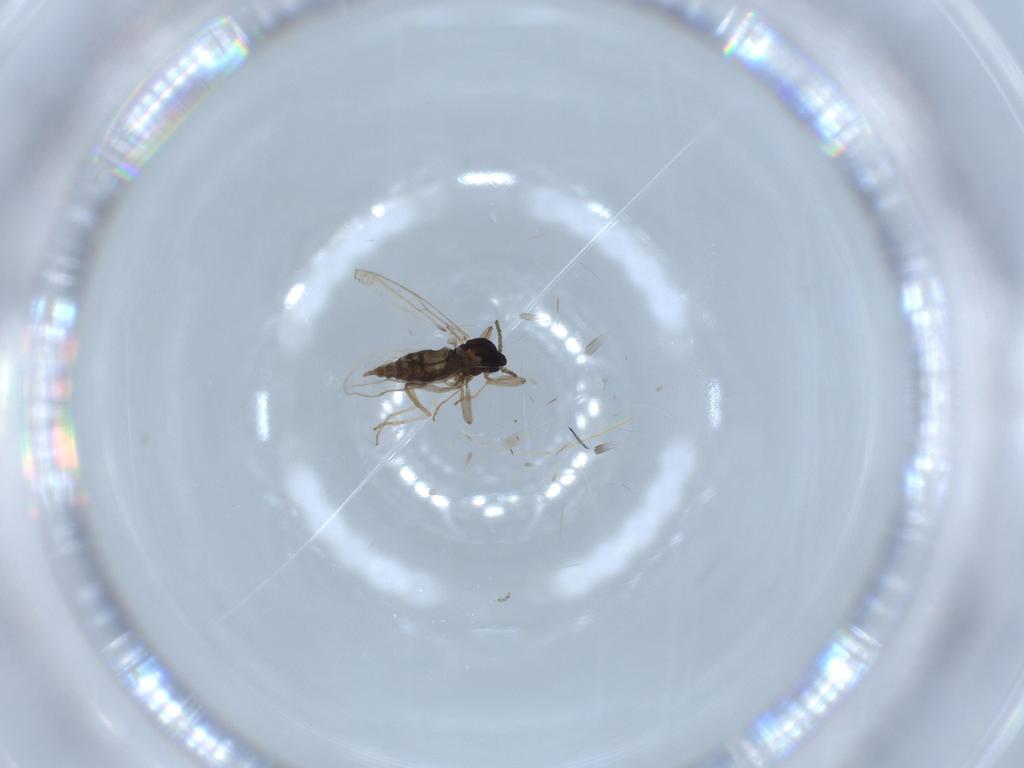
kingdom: Animalia
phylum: Arthropoda
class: Insecta
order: Diptera
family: Cecidomyiidae
